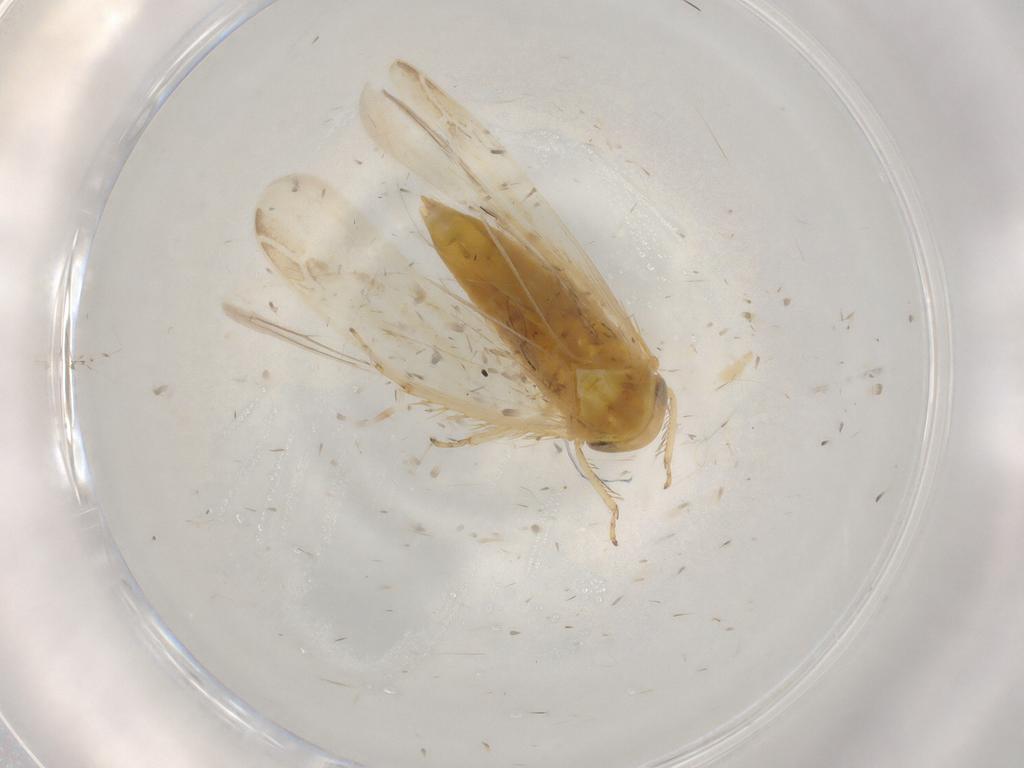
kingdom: Animalia
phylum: Arthropoda
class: Insecta
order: Hemiptera
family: Cicadellidae
